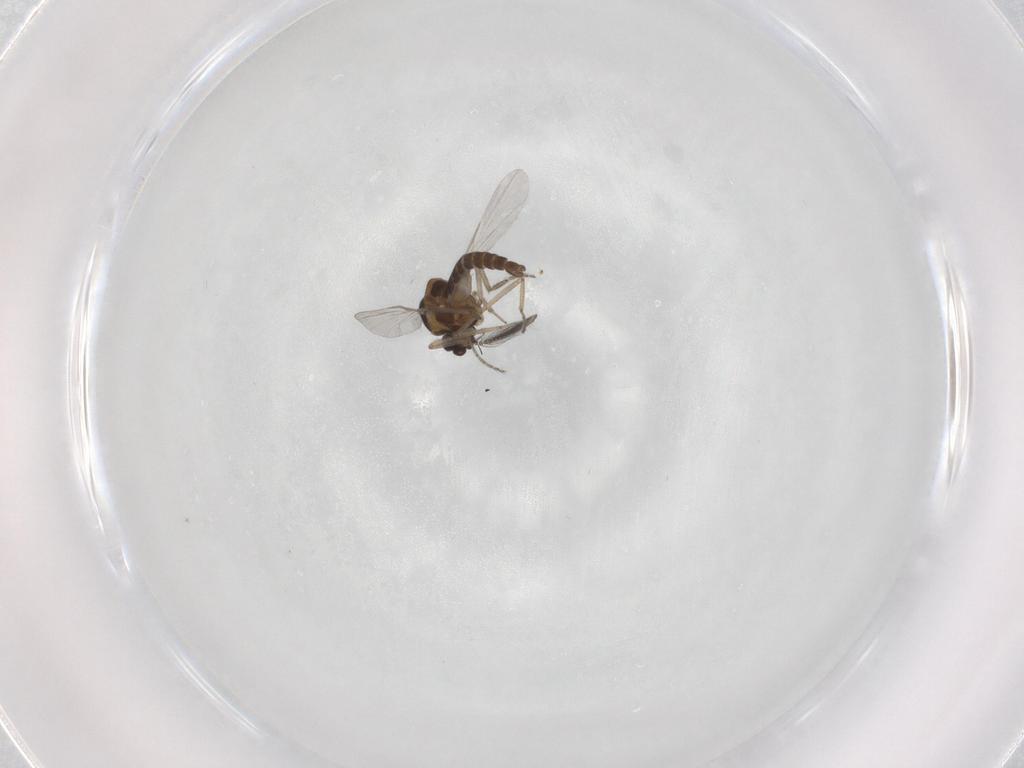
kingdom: Animalia
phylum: Arthropoda
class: Insecta
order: Diptera
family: Ceratopogonidae
